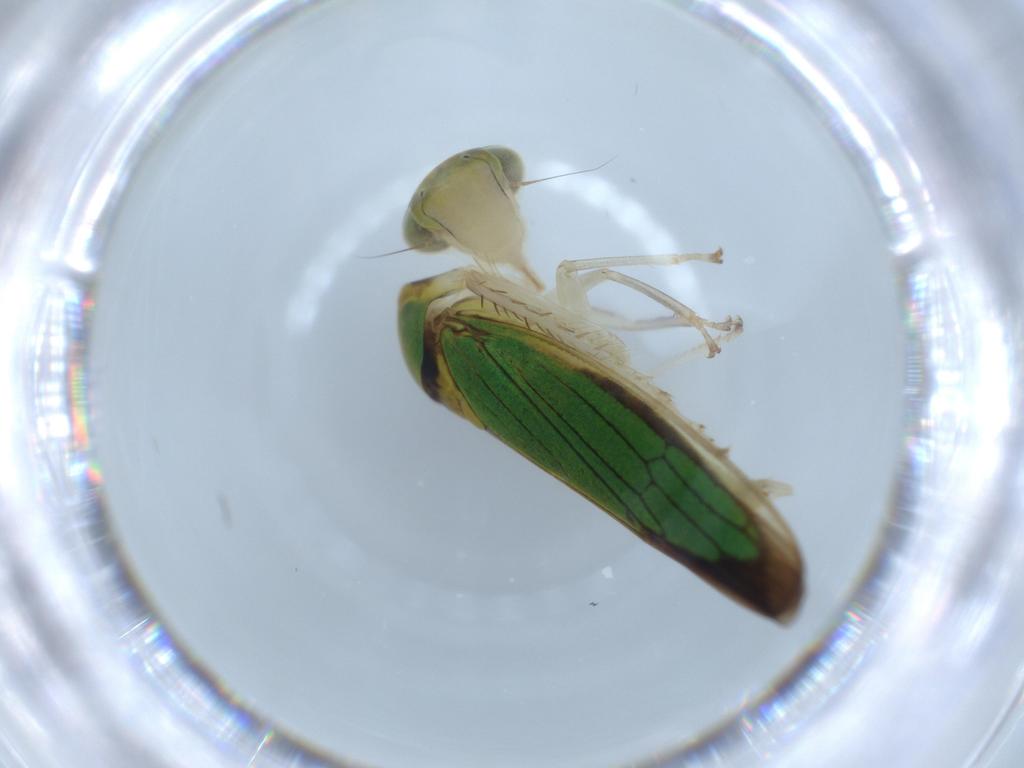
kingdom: Animalia
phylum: Arthropoda
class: Insecta
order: Hemiptera
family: Cicadellidae
